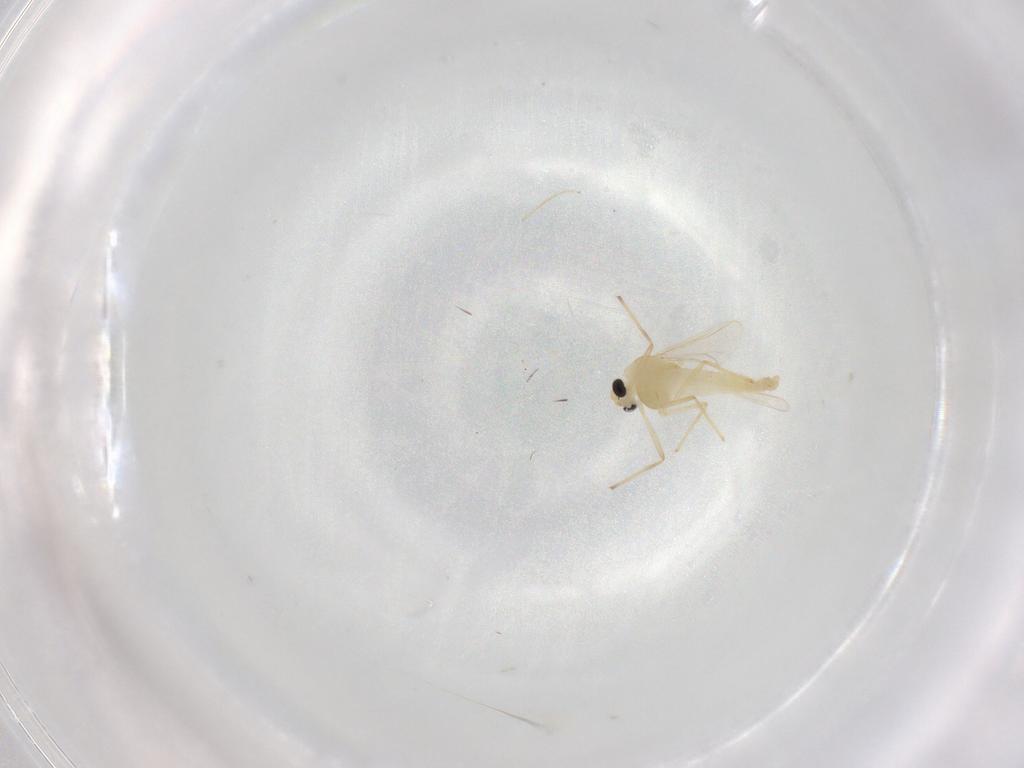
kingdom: Animalia
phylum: Arthropoda
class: Insecta
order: Diptera
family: Chironomidae
